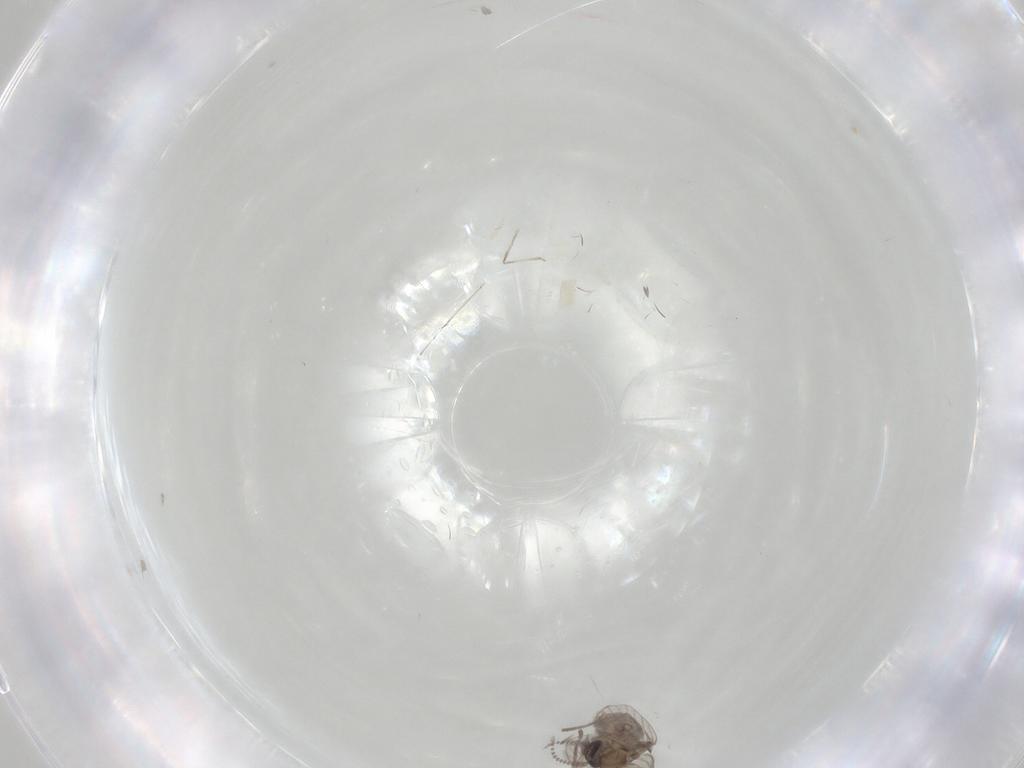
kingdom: Animalia
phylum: Arthropoda
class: Insecta
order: Diptera
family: Psychodidae
